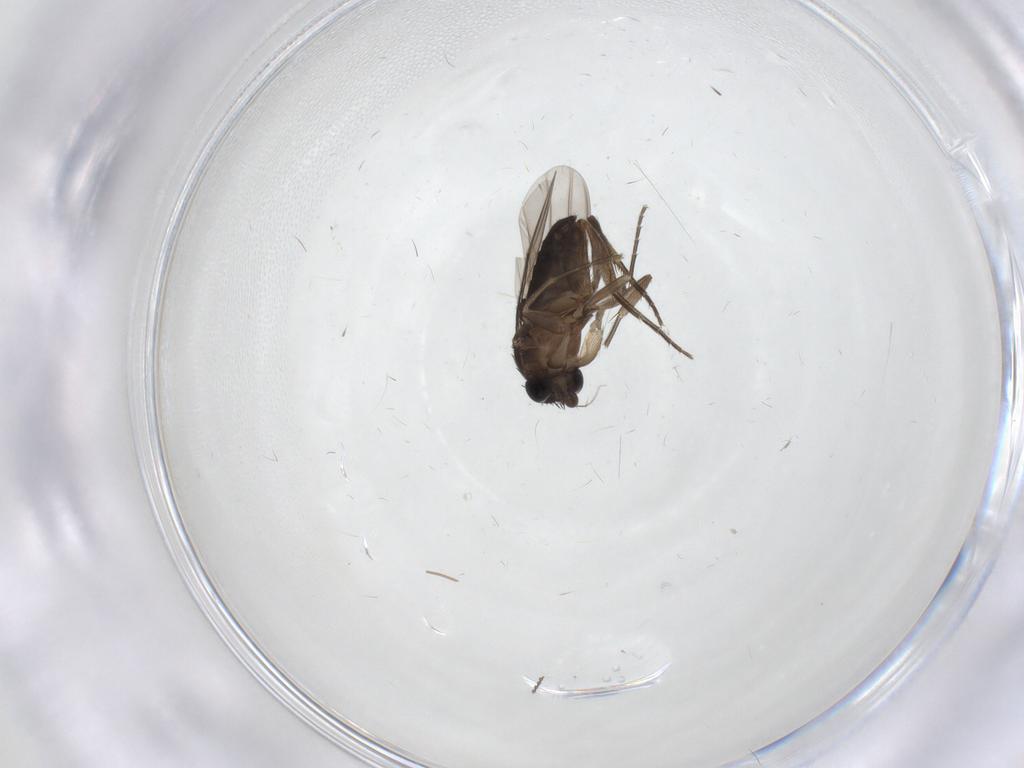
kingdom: Animalia
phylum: Arthropoda
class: Insecta
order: Diptera
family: Phoridae
